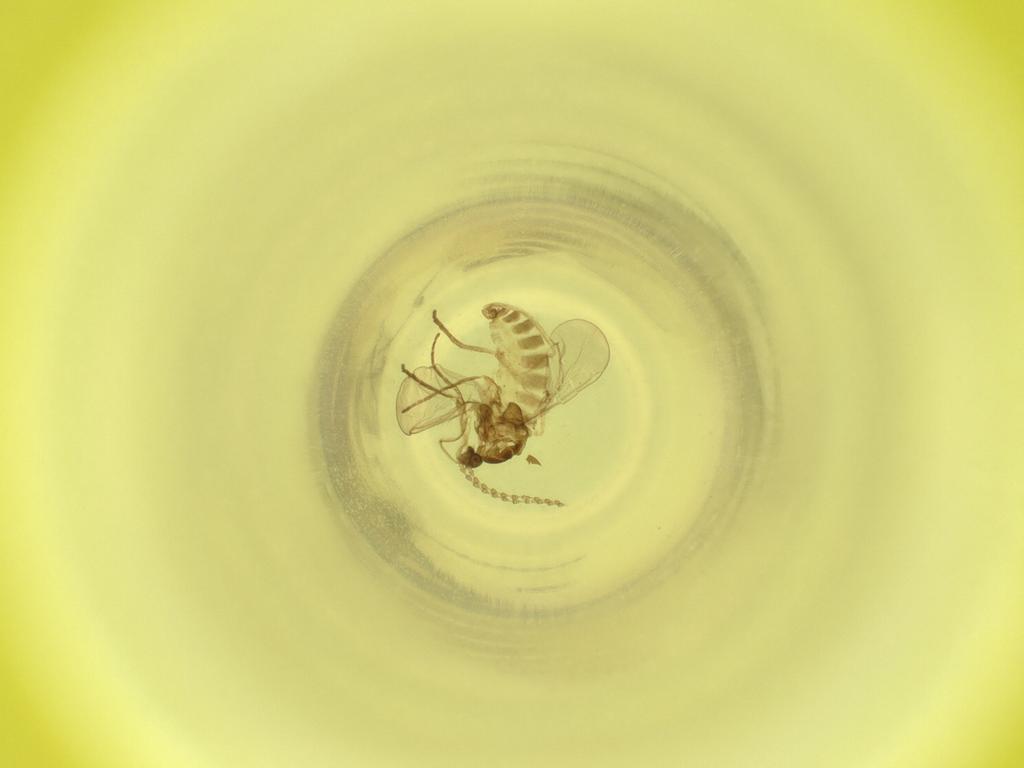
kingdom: Animalia
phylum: Arthropoda
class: Insecta
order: Diptera
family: Cecidomyiidae
